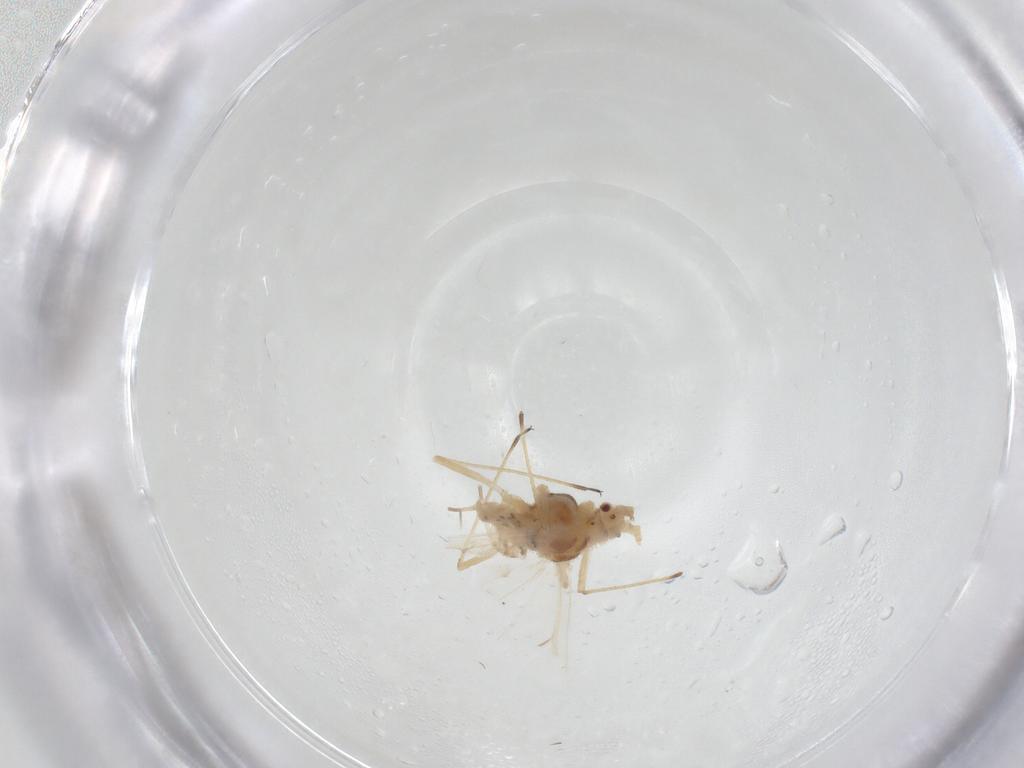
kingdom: Animalia
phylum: Arthropoda
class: Insecta
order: Hemiptera
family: Aphididae
